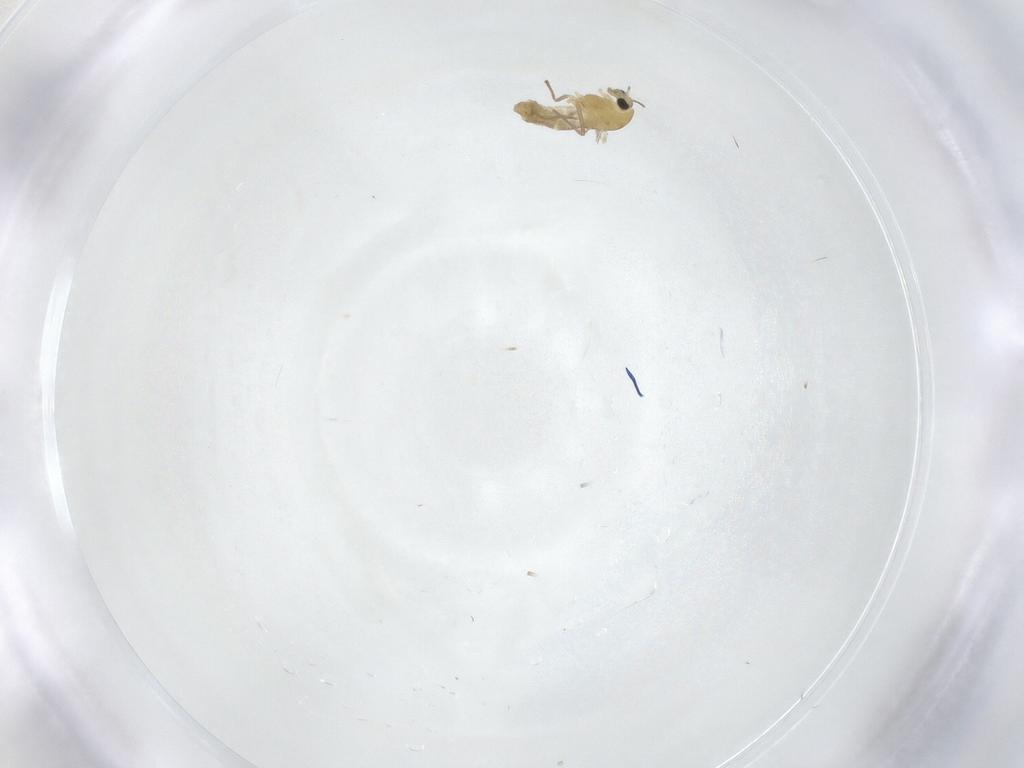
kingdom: Animalia
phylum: Arthropoda
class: Insecta
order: Diptera
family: Chironomidae
